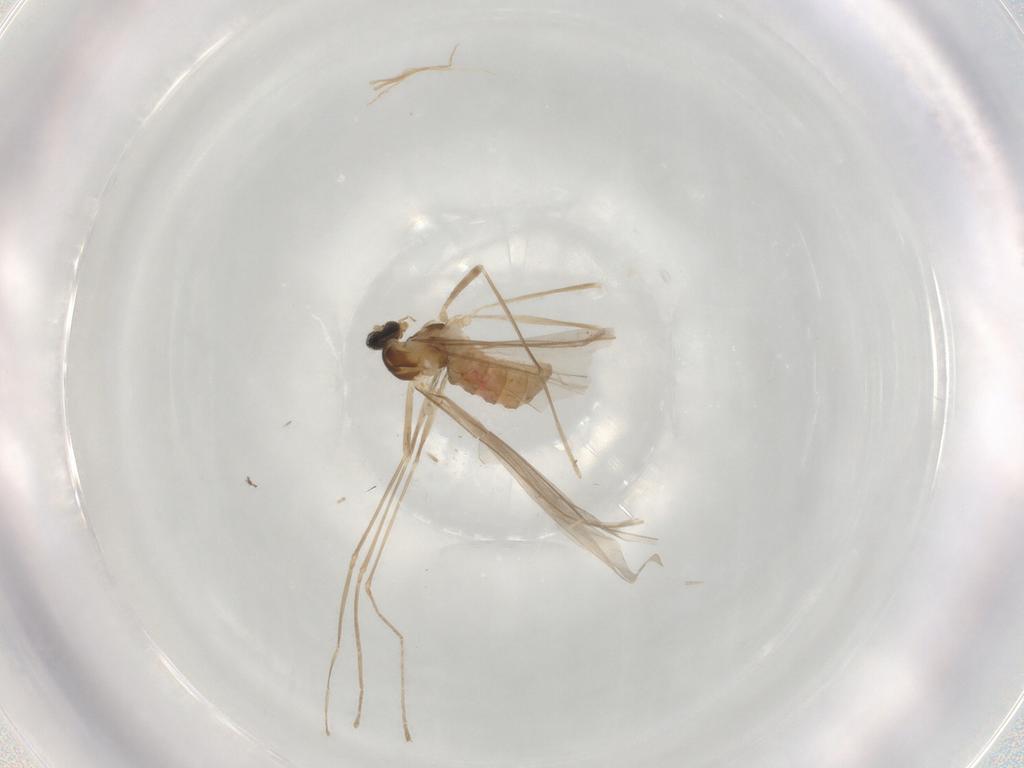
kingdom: Animalia
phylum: Arthropoda
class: Insecta
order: Diptera
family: Cecidomyiidae
